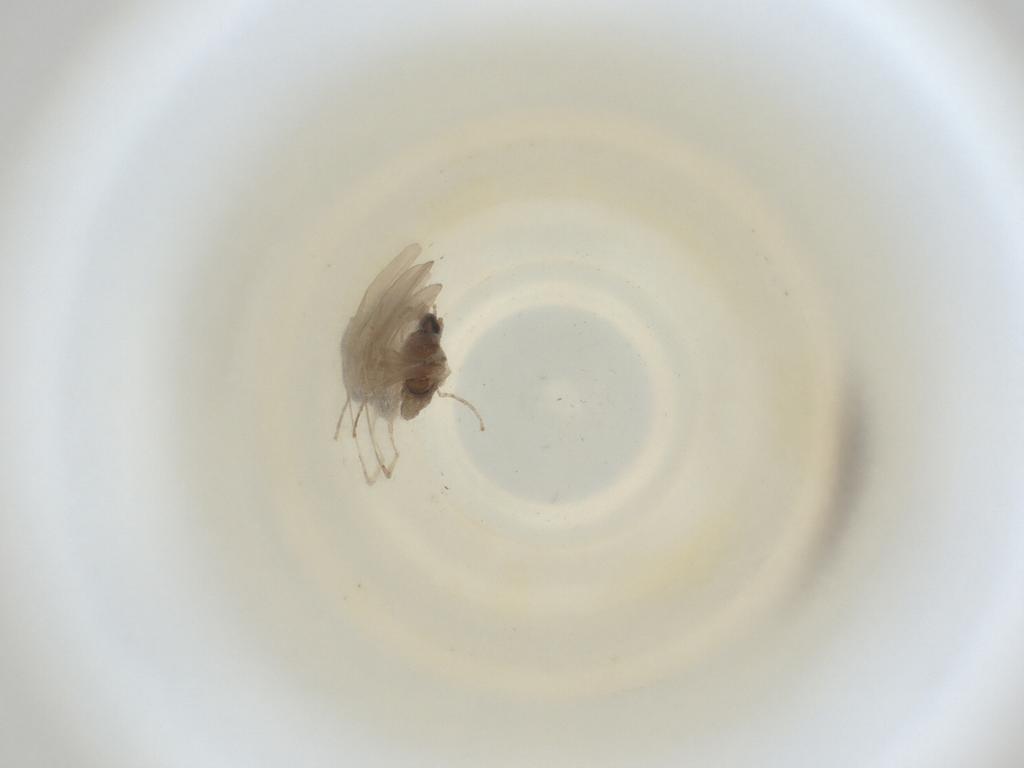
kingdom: Animalia
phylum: Arthropoda
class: Insecta
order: Diptera
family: Cecidomyiidae
